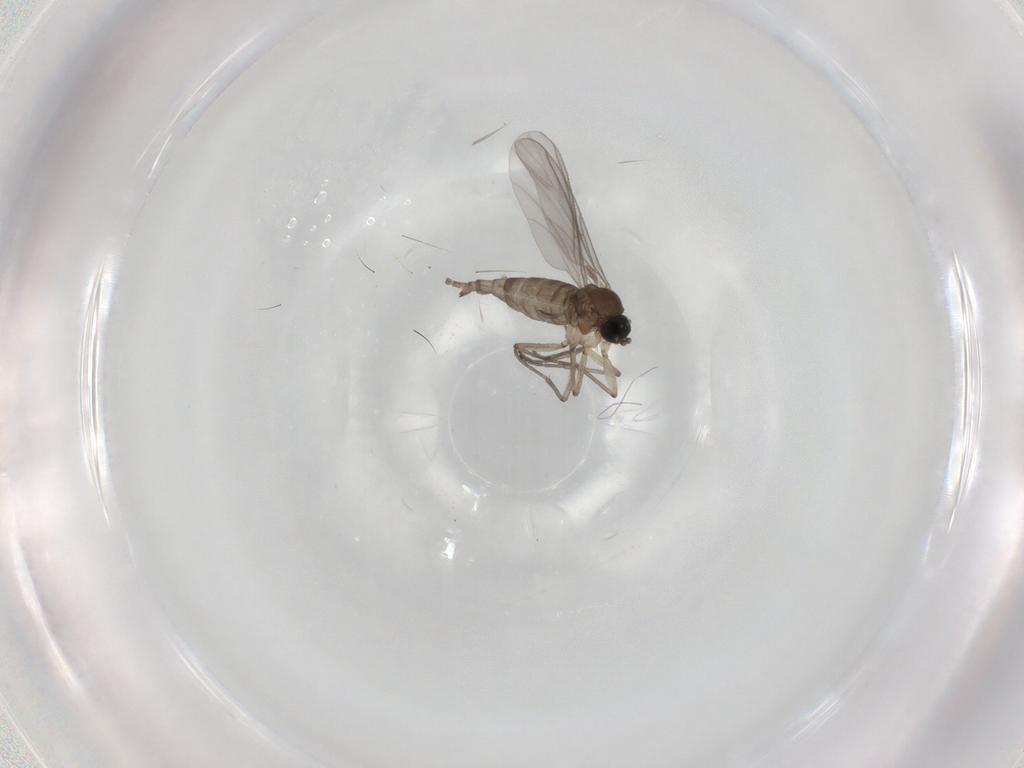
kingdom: Animalia
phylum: Arthropoda
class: Insecta
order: Diptera
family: Sciaridae
